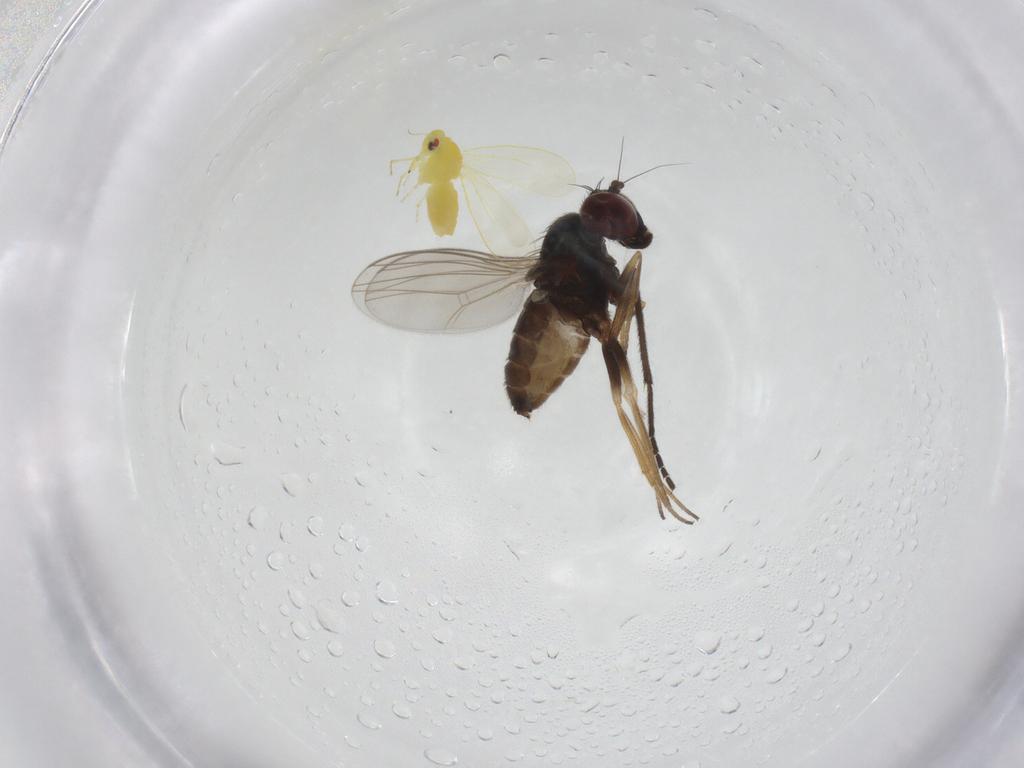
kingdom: Animalia
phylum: Arthropoda
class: Insecta
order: Diptera
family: Dolichopodidae
